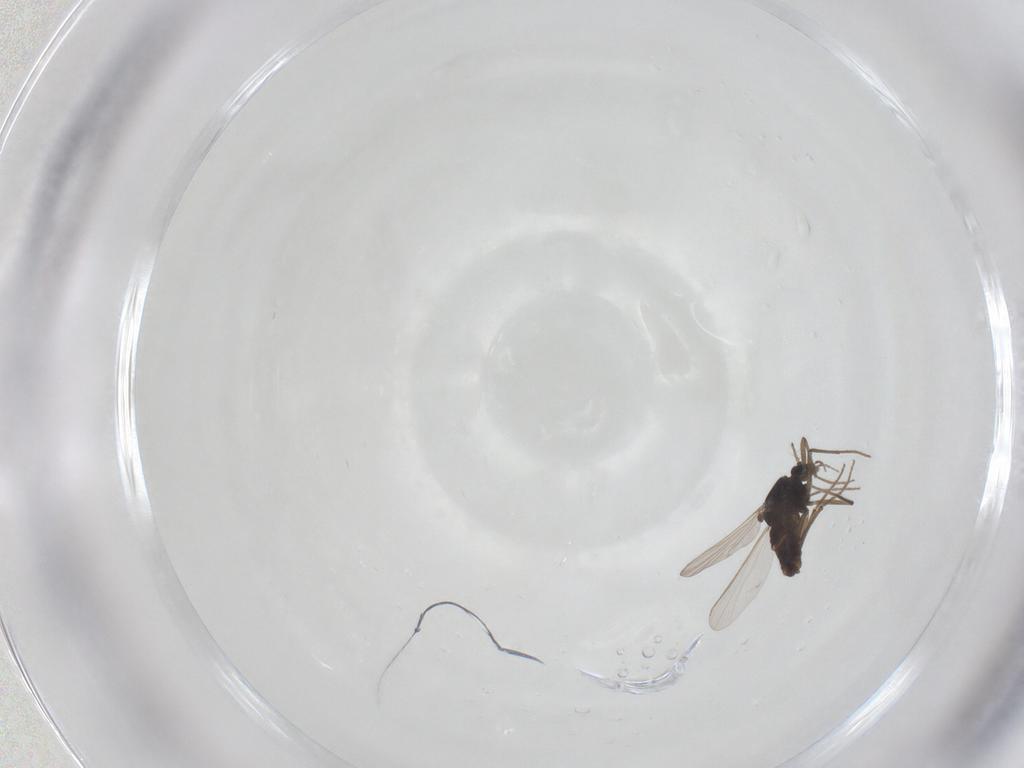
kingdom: Animalia
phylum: Arthropoda
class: Insecta
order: Diptera
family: Chironomidae
